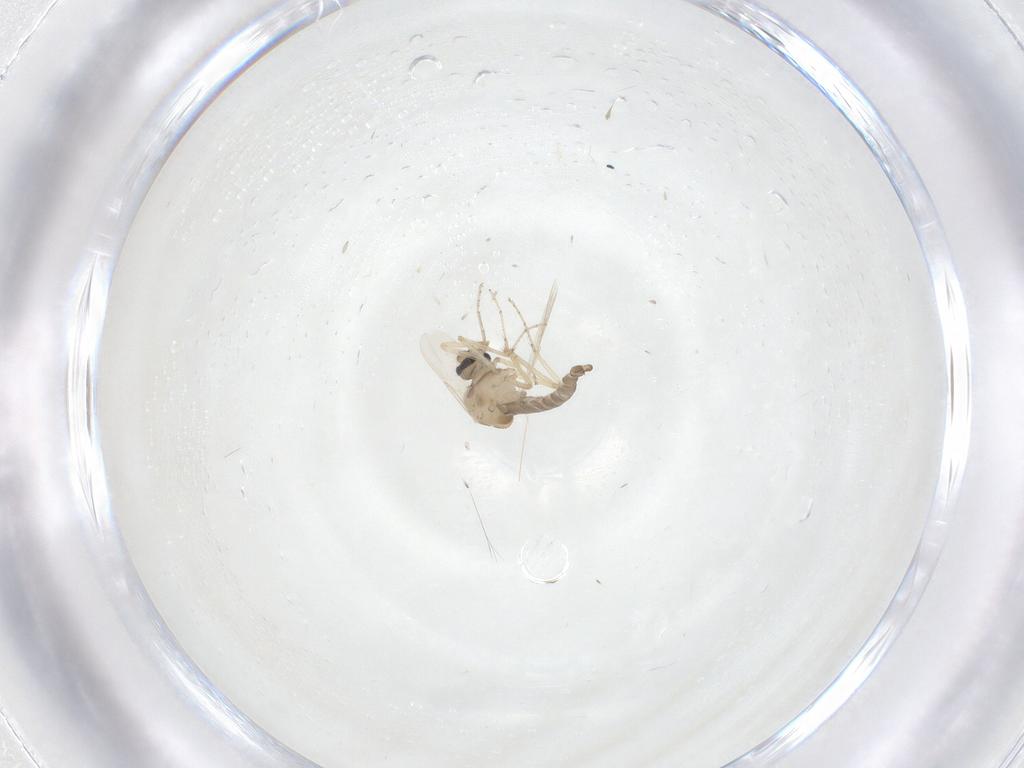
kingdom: Animalia
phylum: Arthropoda
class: Insecta
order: Diptera
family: Ceratopogonidae
